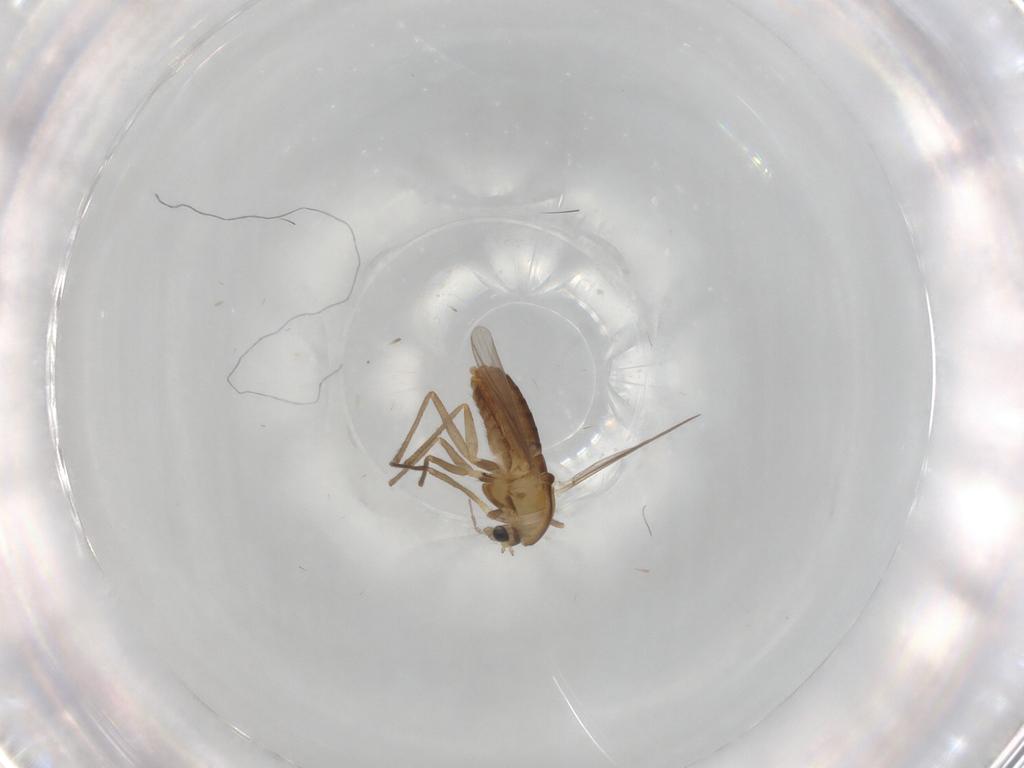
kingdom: Animalia
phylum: Arthropoda
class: Insecta
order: Diptera
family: Chironomidae
